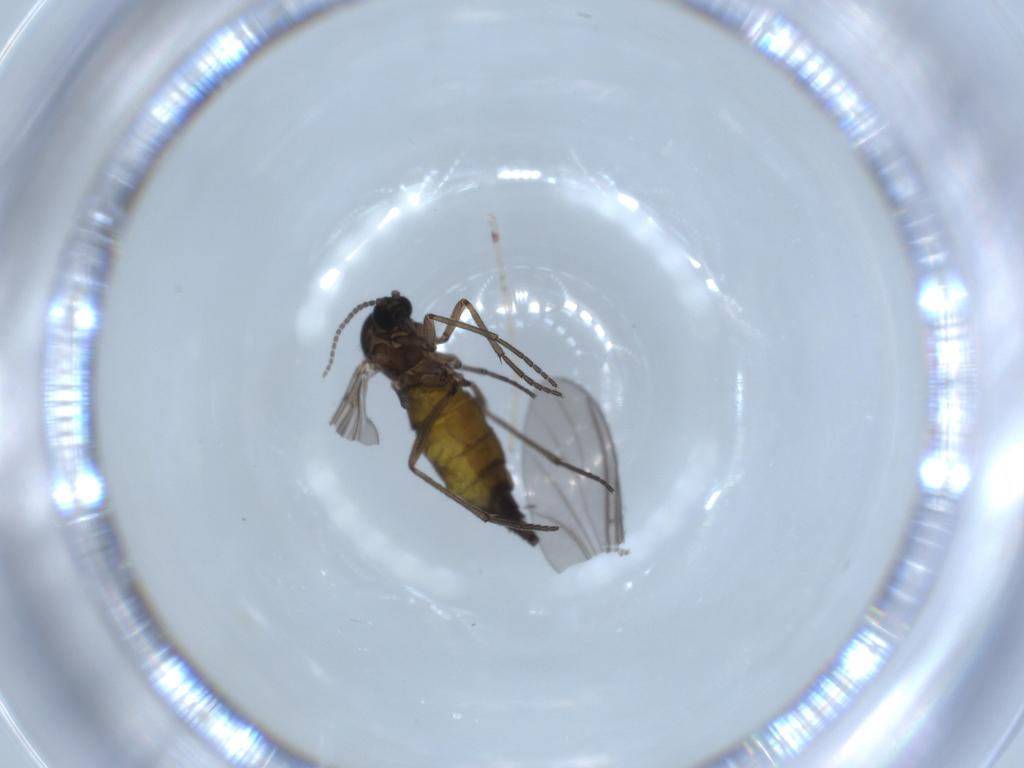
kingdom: Animalia
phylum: Arthropoda
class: Insecta
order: Diptera
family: Sciaridae
